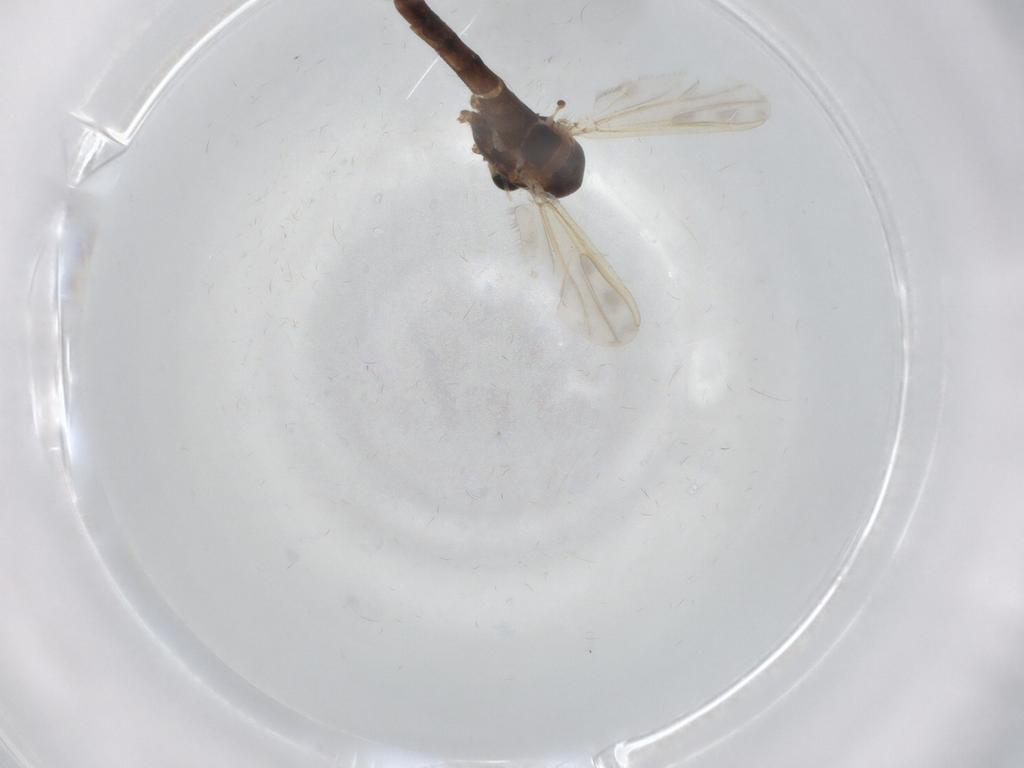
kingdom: Animalia
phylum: Arthropoda
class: Insecta
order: Diptera
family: Chironomidae
